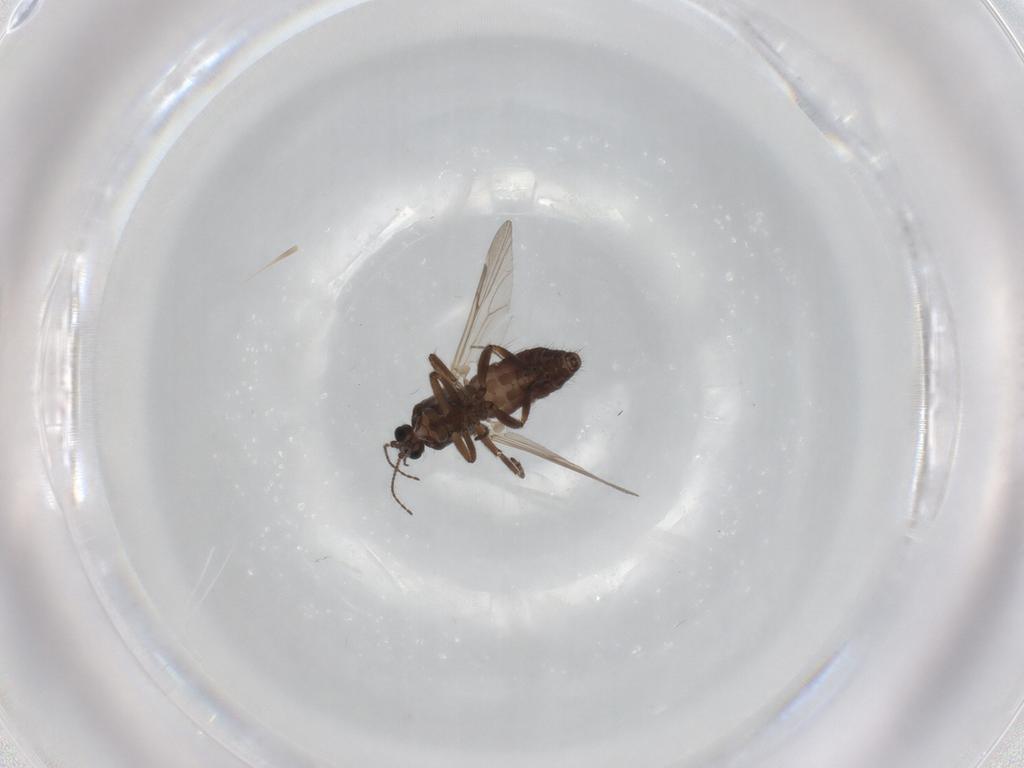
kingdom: Animalia
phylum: Arthropoda
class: Insecta
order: Diptera
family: Ceratopogonidae
